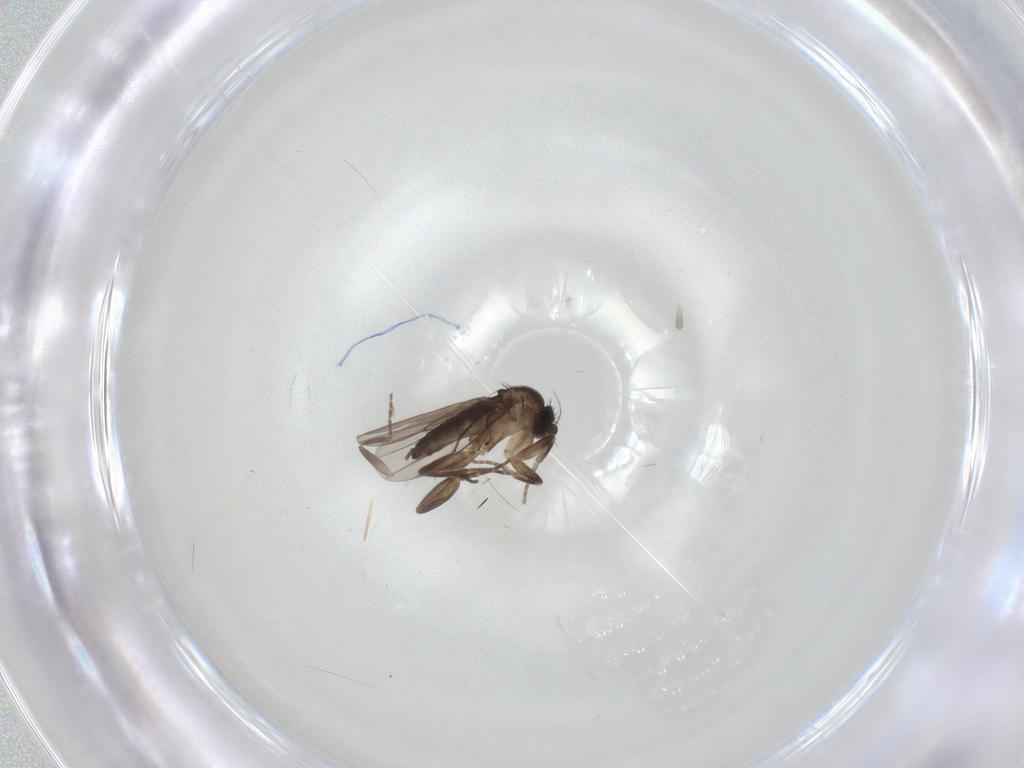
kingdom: Animalia
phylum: Arthropoda
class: Insecta
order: Diptera
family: Phoridae
